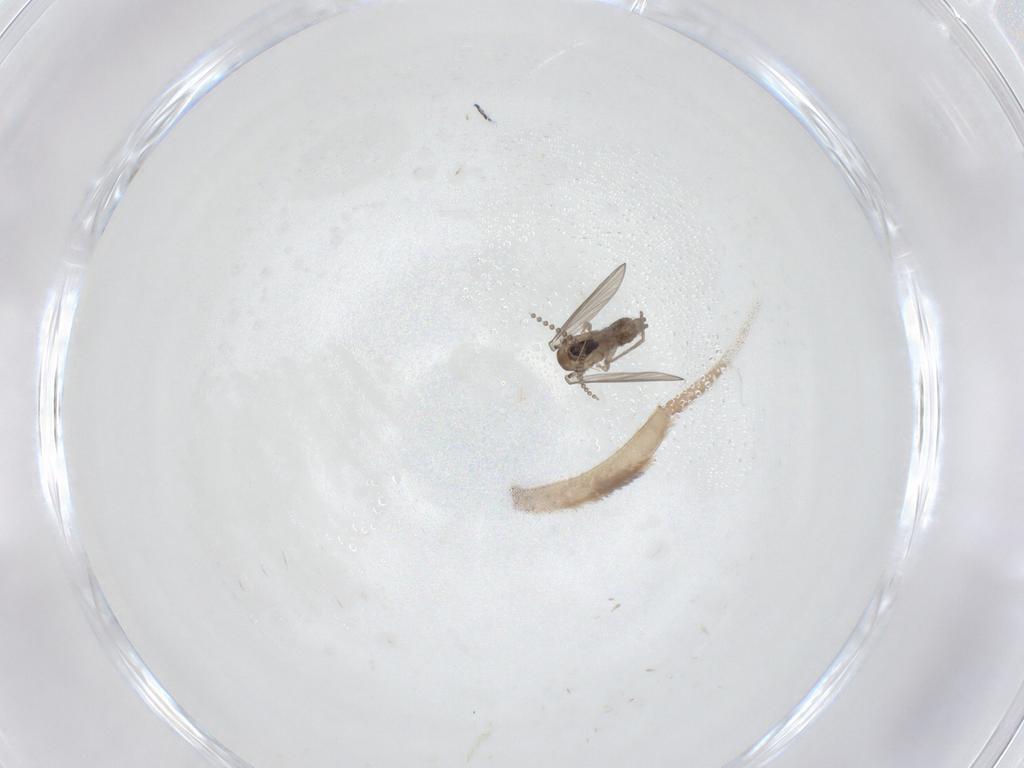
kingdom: Animalia
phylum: Arthropoda
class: Insecta
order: Diptera
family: Psychodidae
